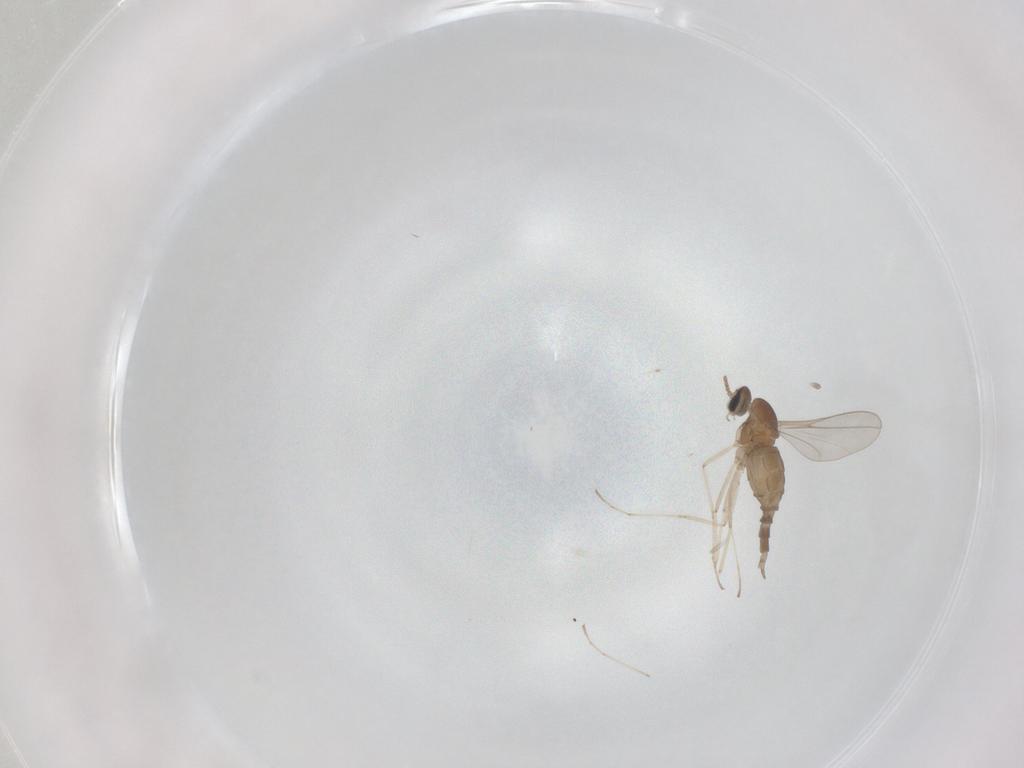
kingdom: Animalia
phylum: Arthropoda
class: Insecta
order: Diptera
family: Cecidomyiidae
